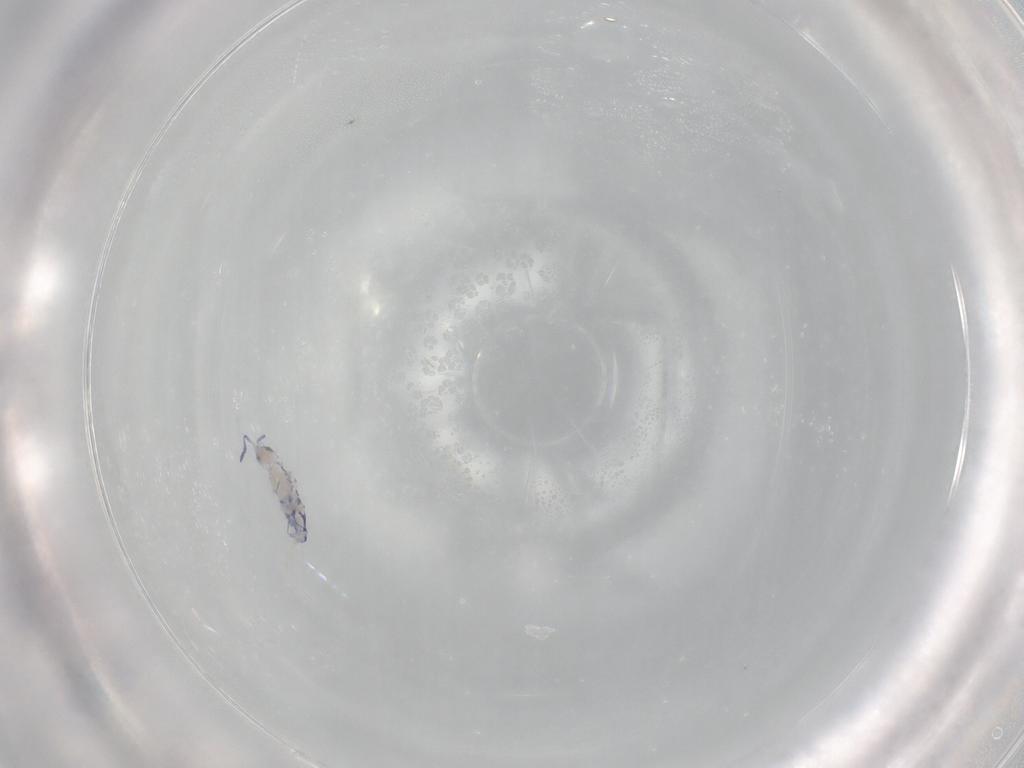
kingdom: Animalia
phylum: Arthropoda
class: Collembola
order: Entomobryomorpha
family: Entomobryidae
